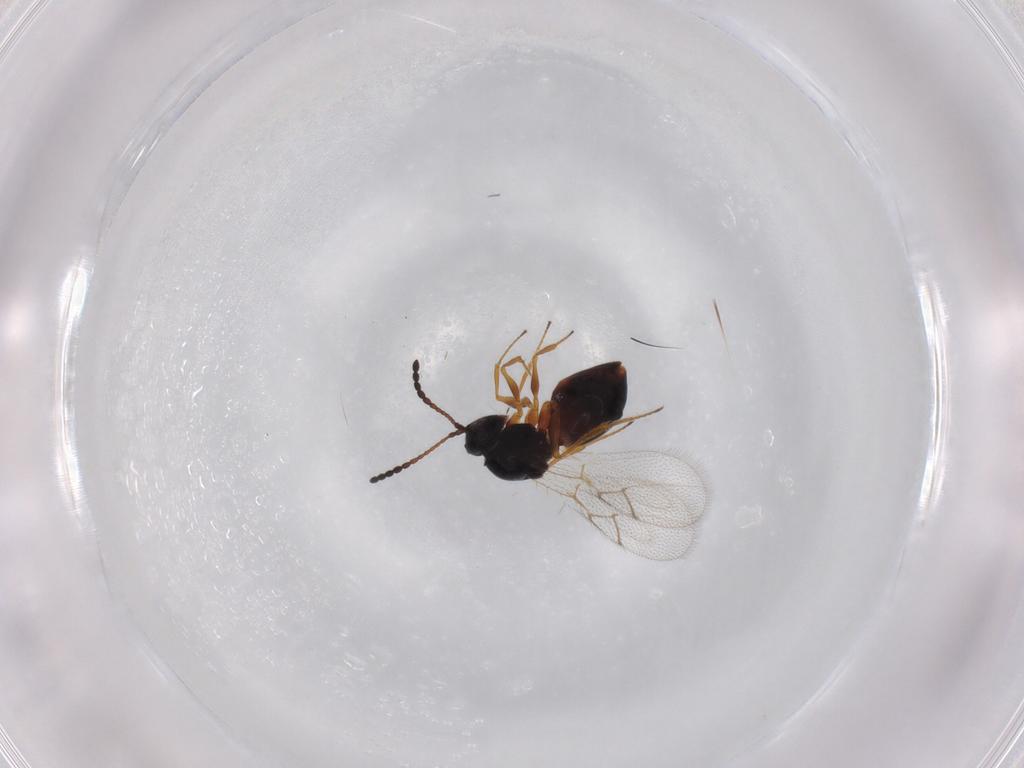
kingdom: Animalia
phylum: Arthropoda
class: Insecta
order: Hymenoptera
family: Figitidae
